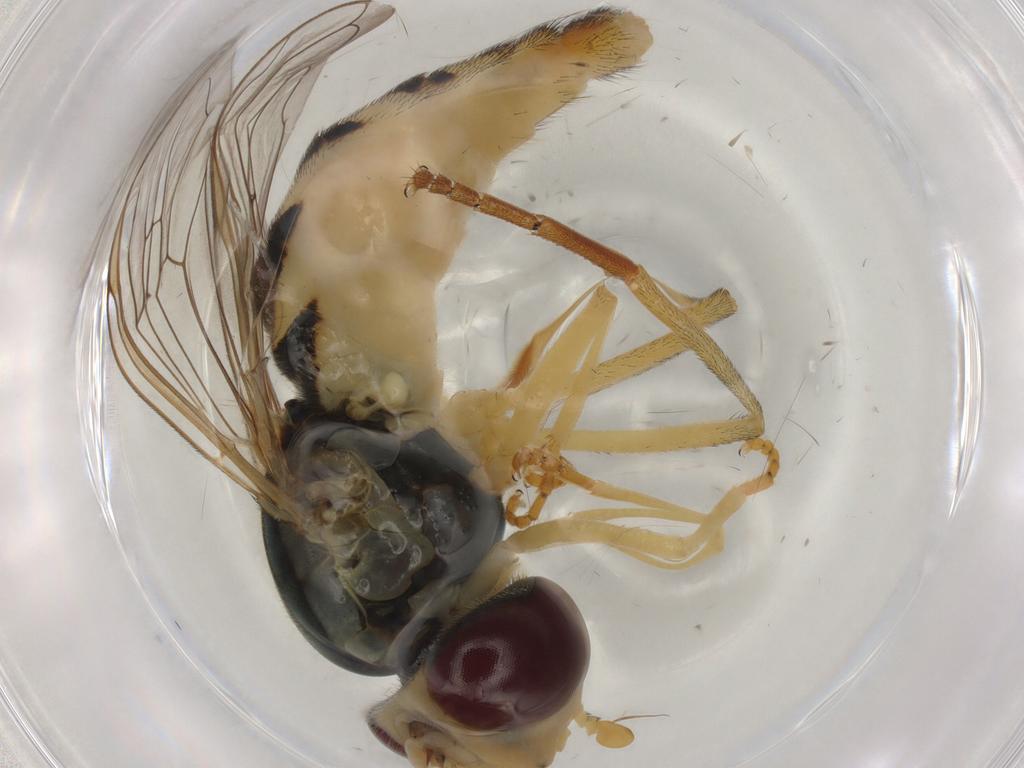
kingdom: Animalia
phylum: Arthropoda
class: Insecta
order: Diptera
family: Syrphidae
